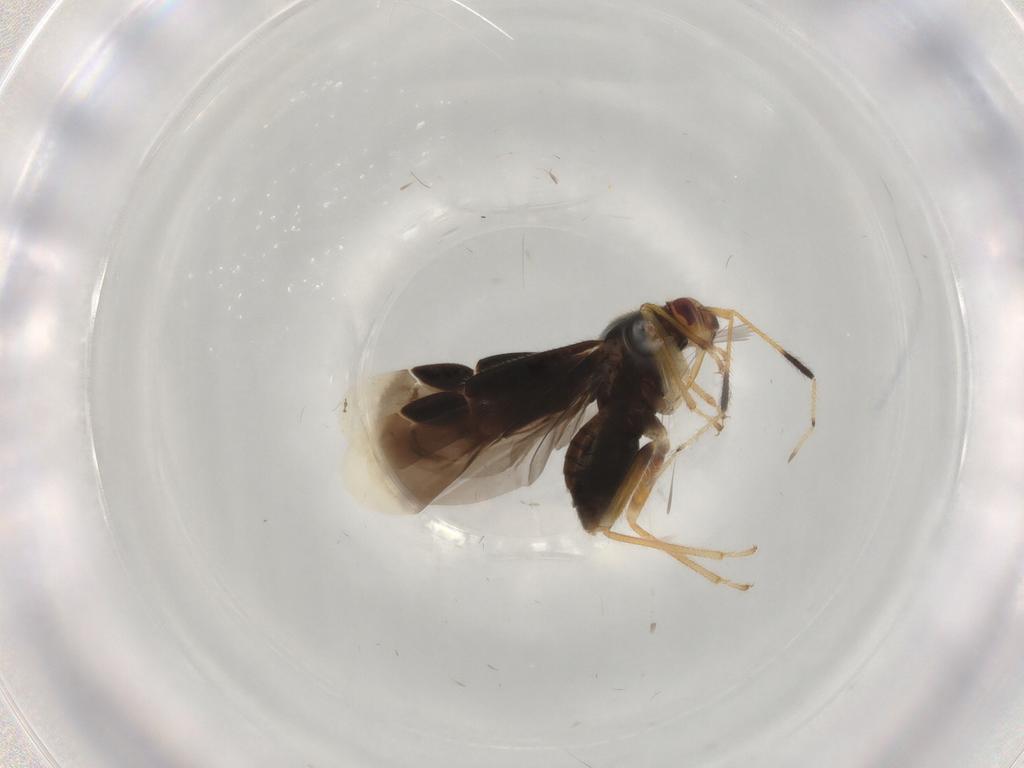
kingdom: Animalia
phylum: Arthropoda
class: Insecta
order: Hemiptera
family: Miridae
